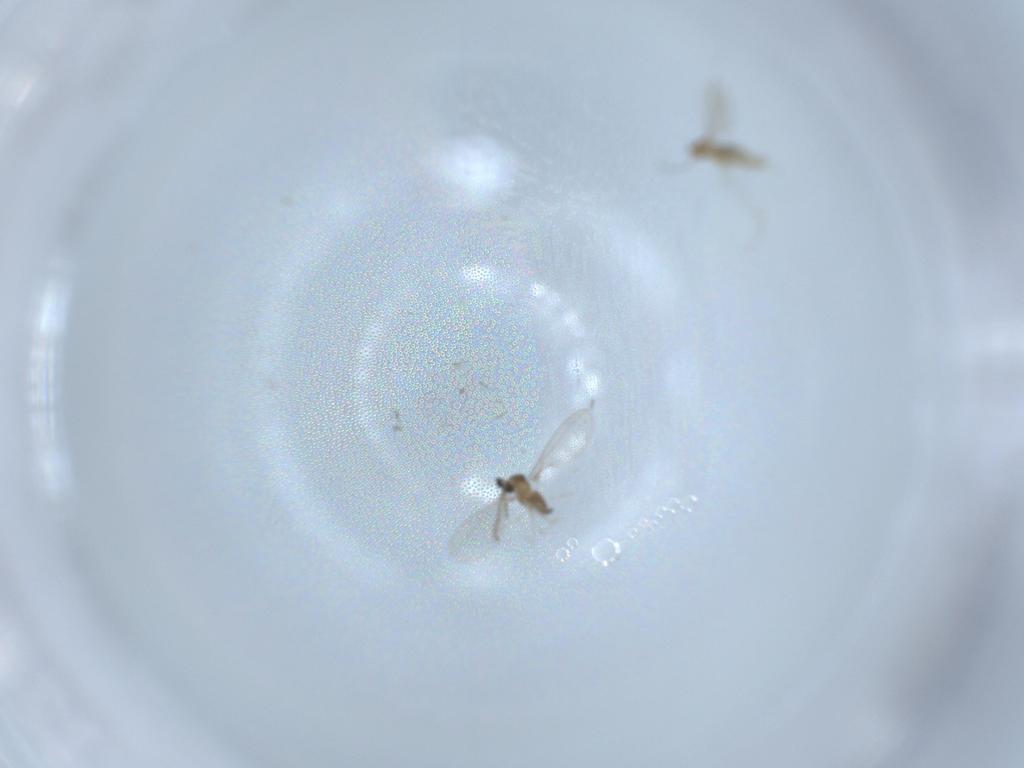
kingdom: Animalia
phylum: Arthropoda
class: Insecta
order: Diptera
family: Cecidomyiidae
